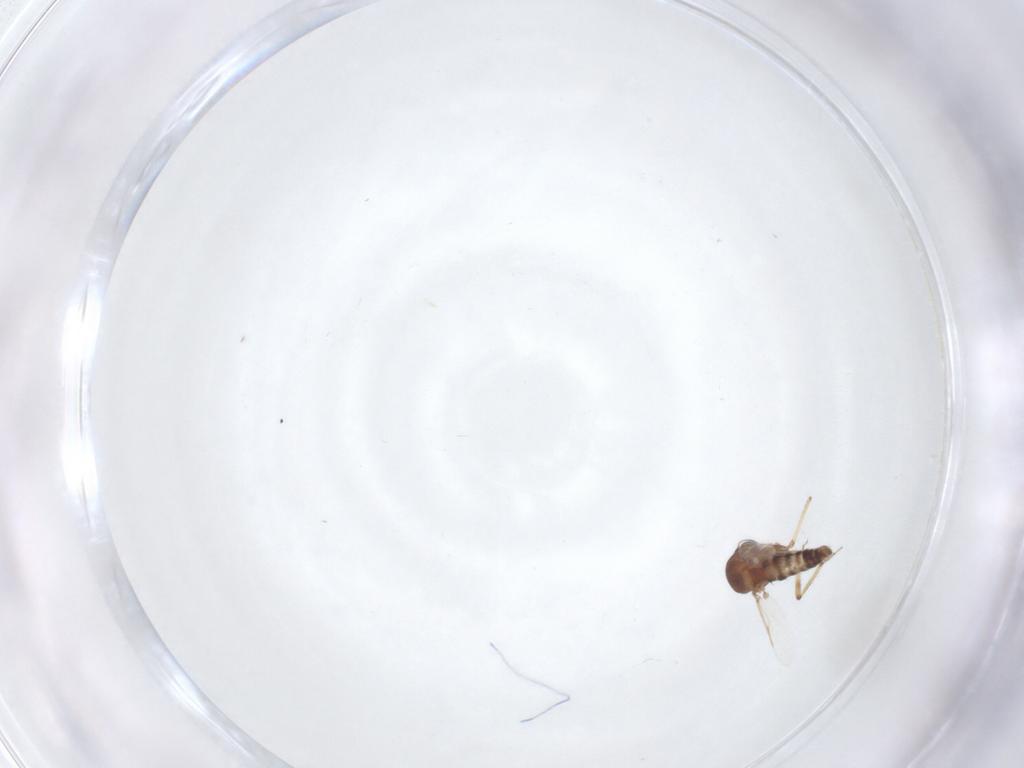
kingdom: Animalia
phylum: Arthropoda
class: Insecta
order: Diptera
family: Ceratopogonidae
